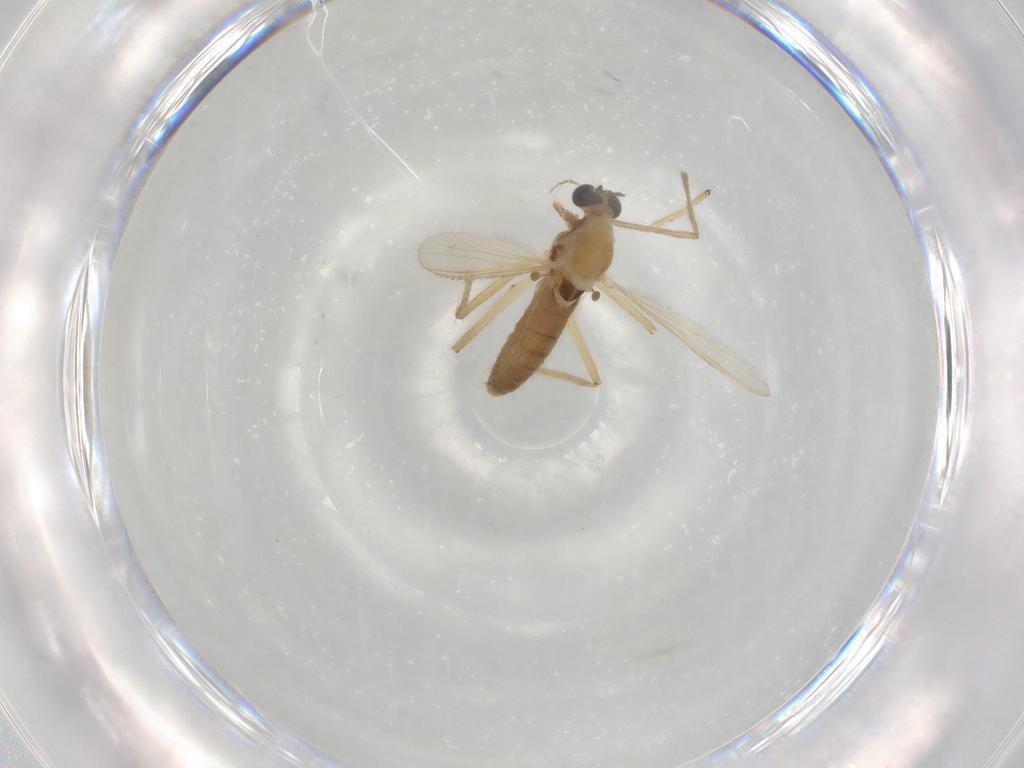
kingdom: Animalia
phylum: Arthropoda
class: Insecta
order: Diptera
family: Chironomidae
